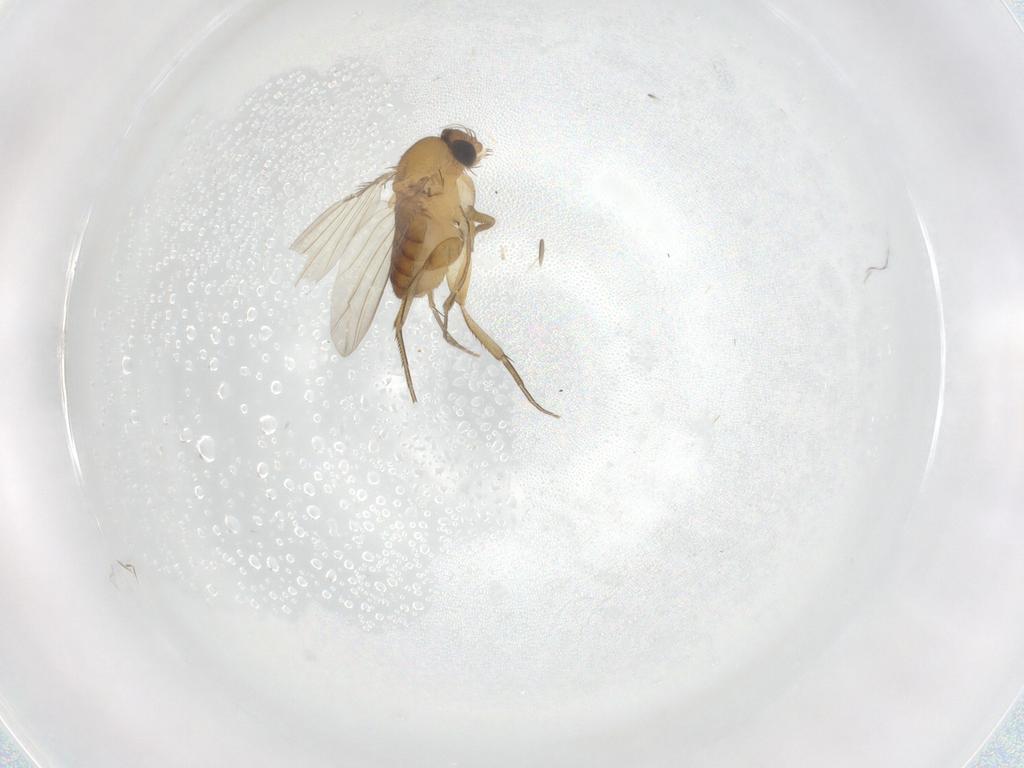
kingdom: Animalia
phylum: Arthropoda
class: Insecta
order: Diptera
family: Phoridae
